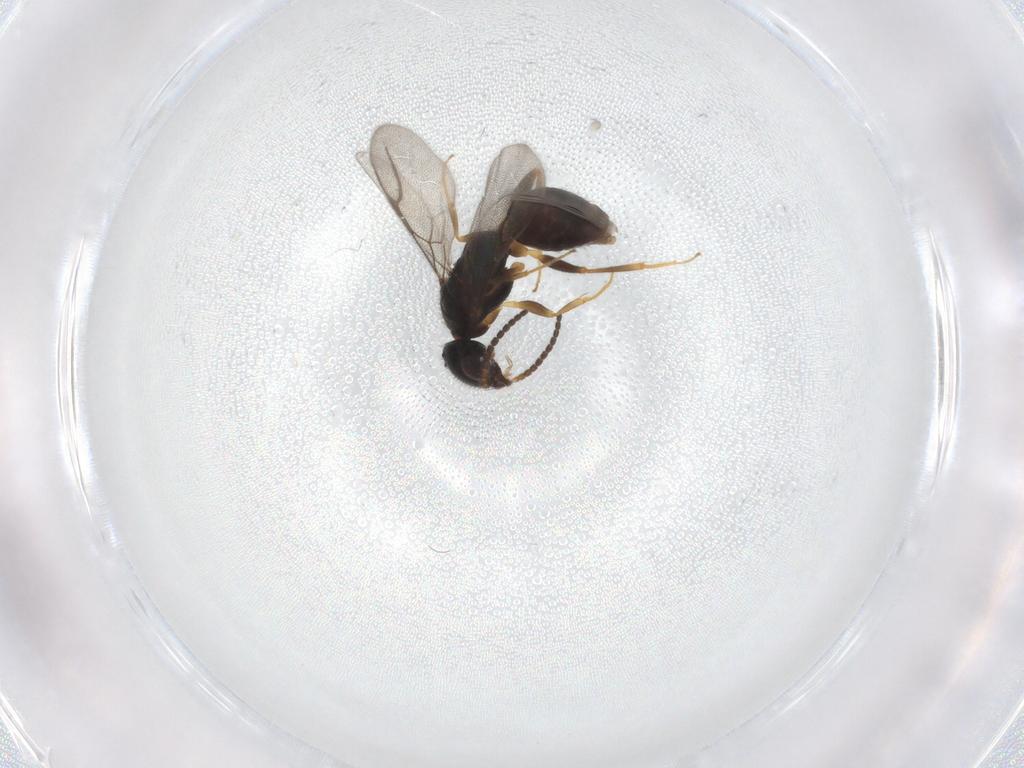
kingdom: Animalia
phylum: Arthropoda
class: Insecta
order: Hymenoptera
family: Bethylidae
